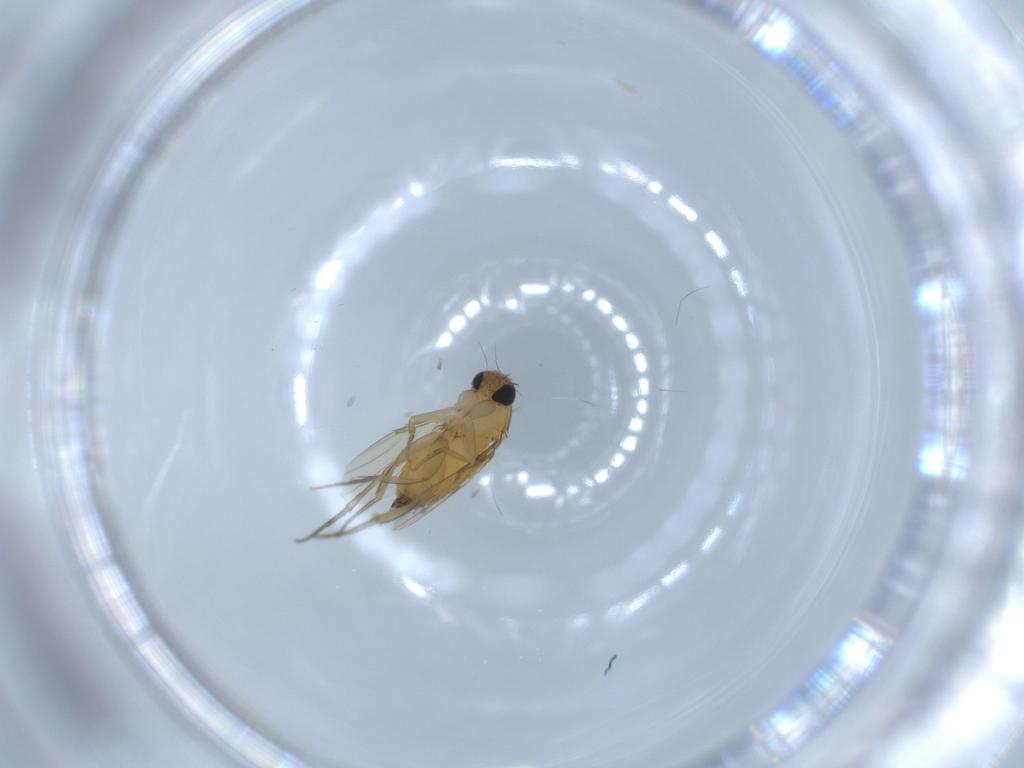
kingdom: Animalia
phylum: Arthropoda
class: Insecta
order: Diptera
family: Phoridae
